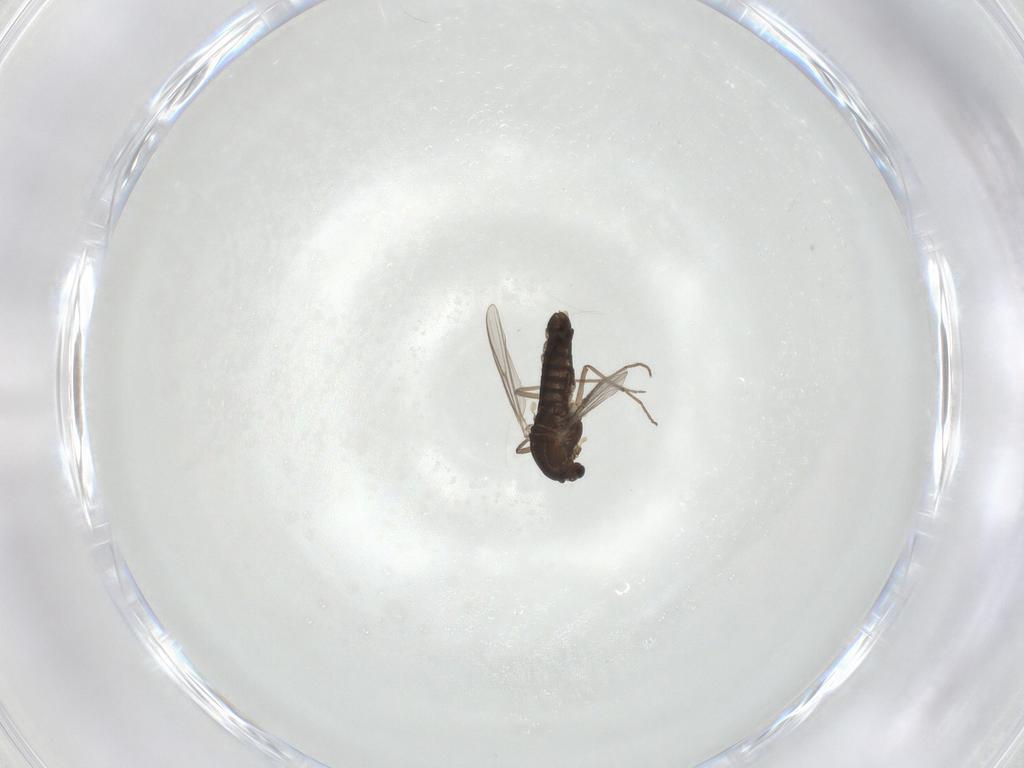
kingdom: Animalia
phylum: Arthropoda
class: Insecta
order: Diptera
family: Chironomidae
